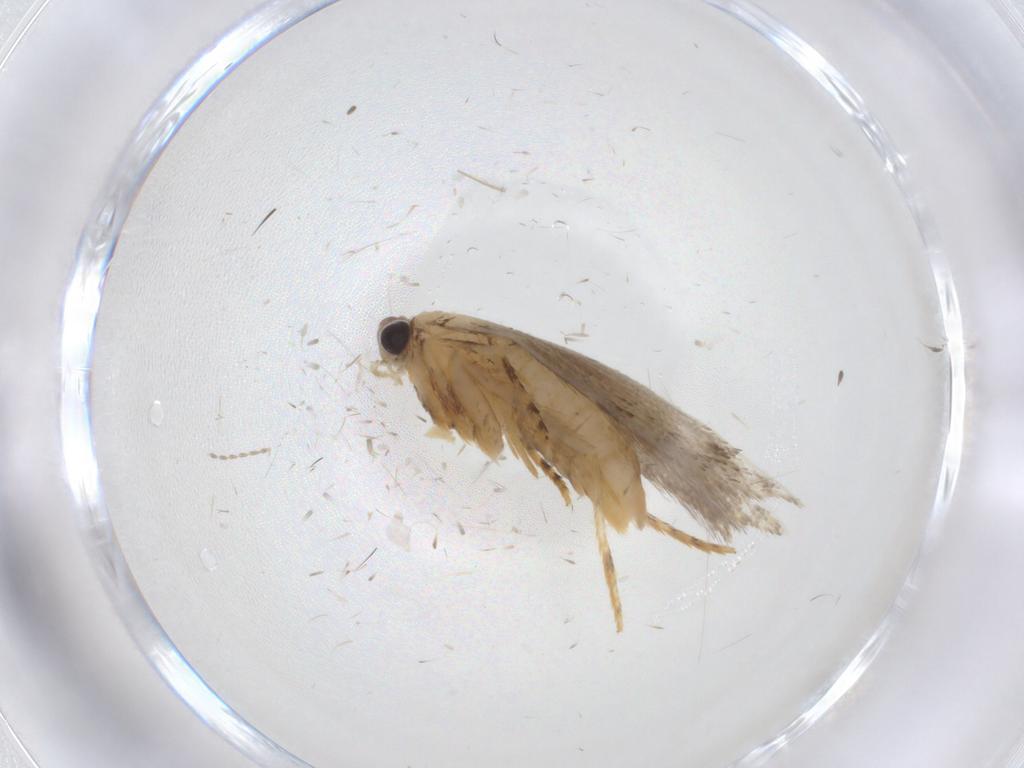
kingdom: Animalia
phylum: Arthropoda
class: Insecta
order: Lepidoptera
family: Tineidae
